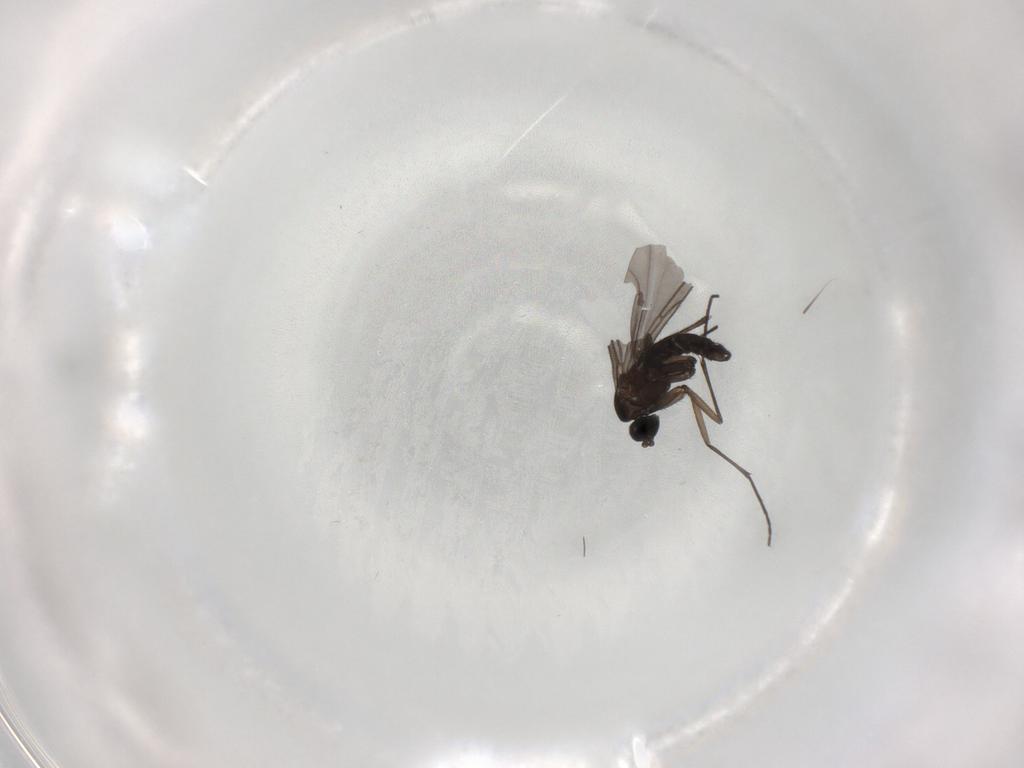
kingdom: Animalia
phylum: Arthropoda
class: Insecta
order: Diptera
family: Sciaridae
